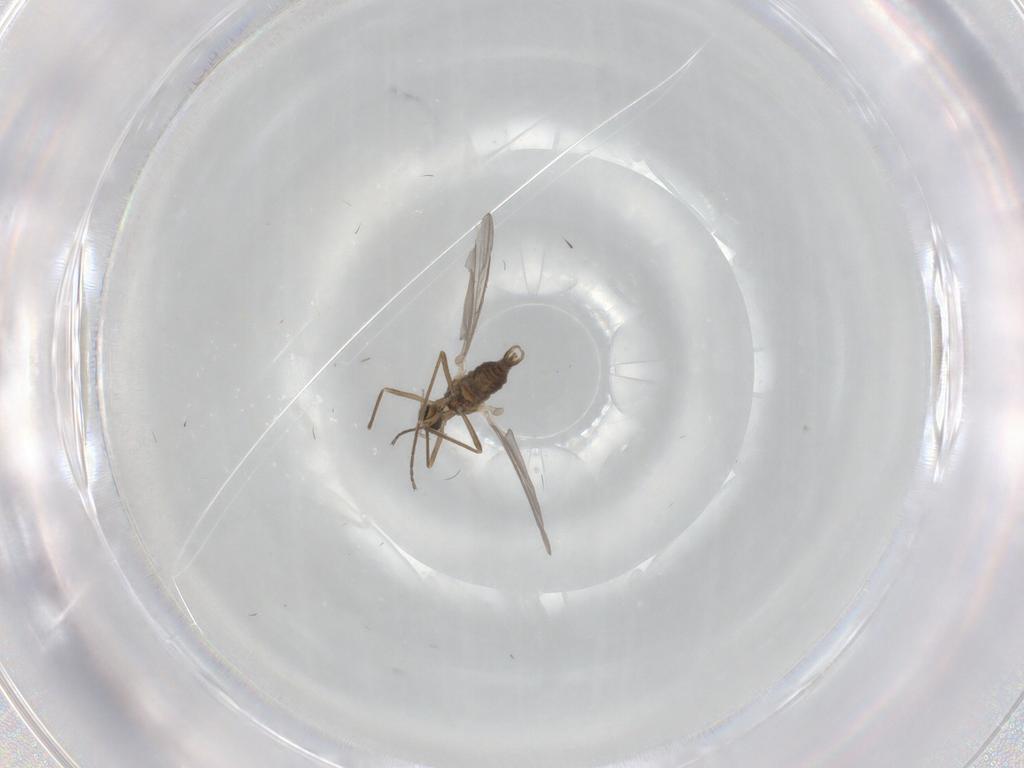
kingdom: Animalia
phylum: Arthropoda
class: Insecta
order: Diptera
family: Cecidomyiidae
